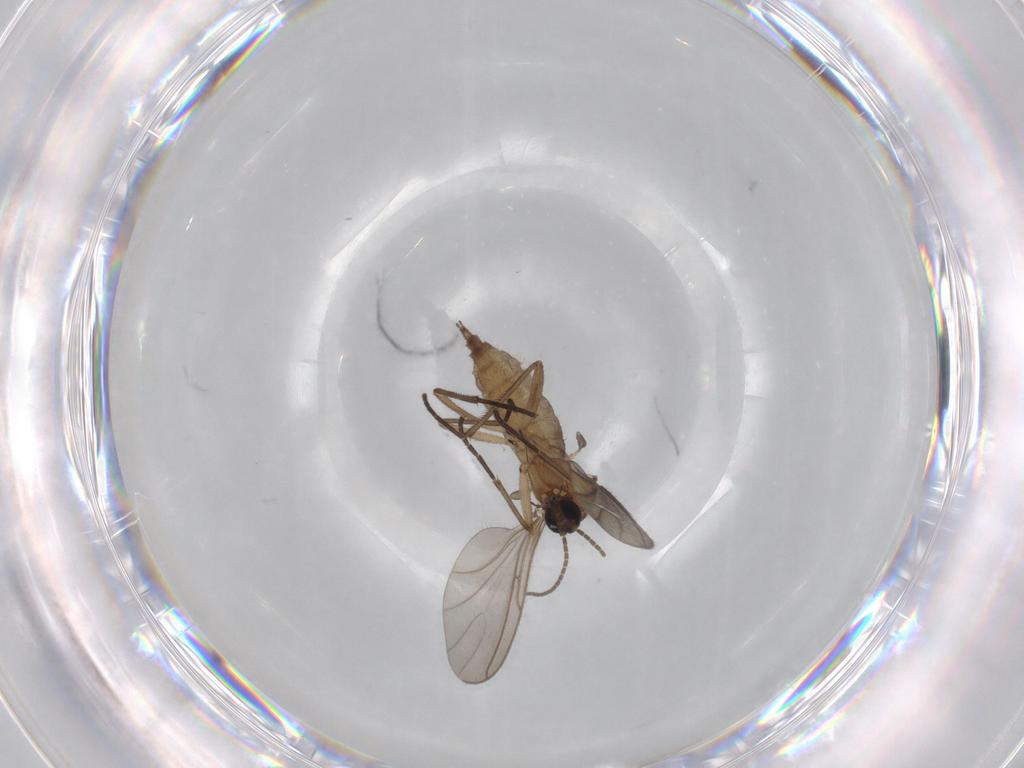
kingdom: Animalia
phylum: Arthropoda
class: Insecta
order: Diptera
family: Sciaridae
